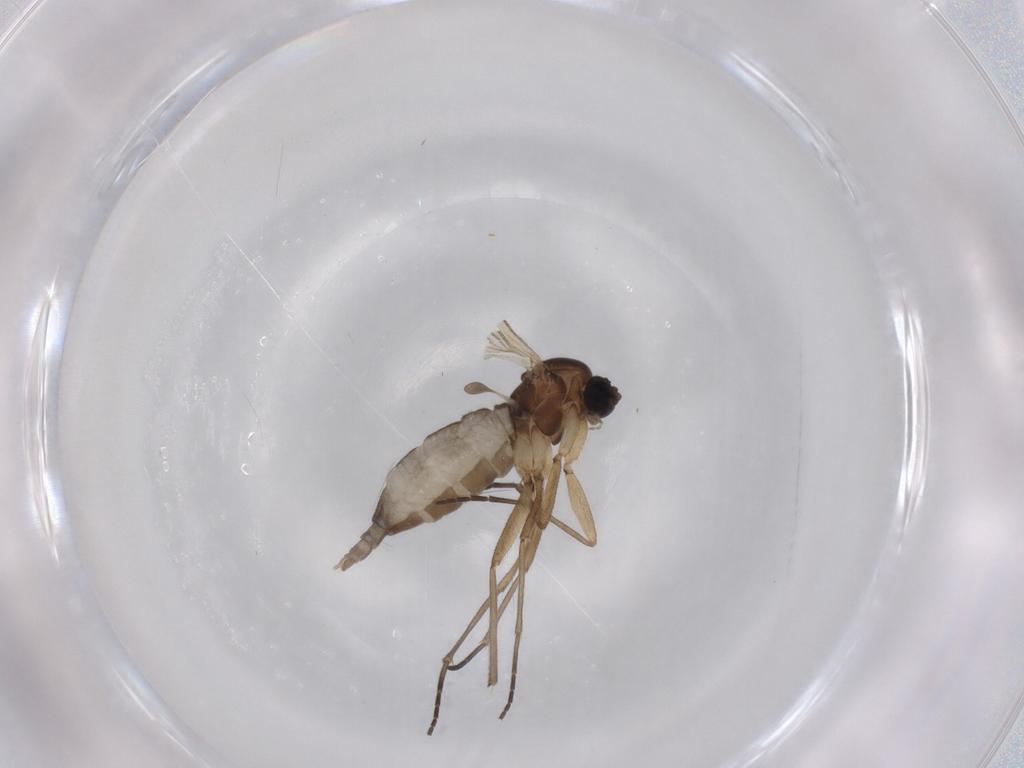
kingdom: Animalia
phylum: Arthropoda
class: Insecta
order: Diptera
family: Sciaridae
